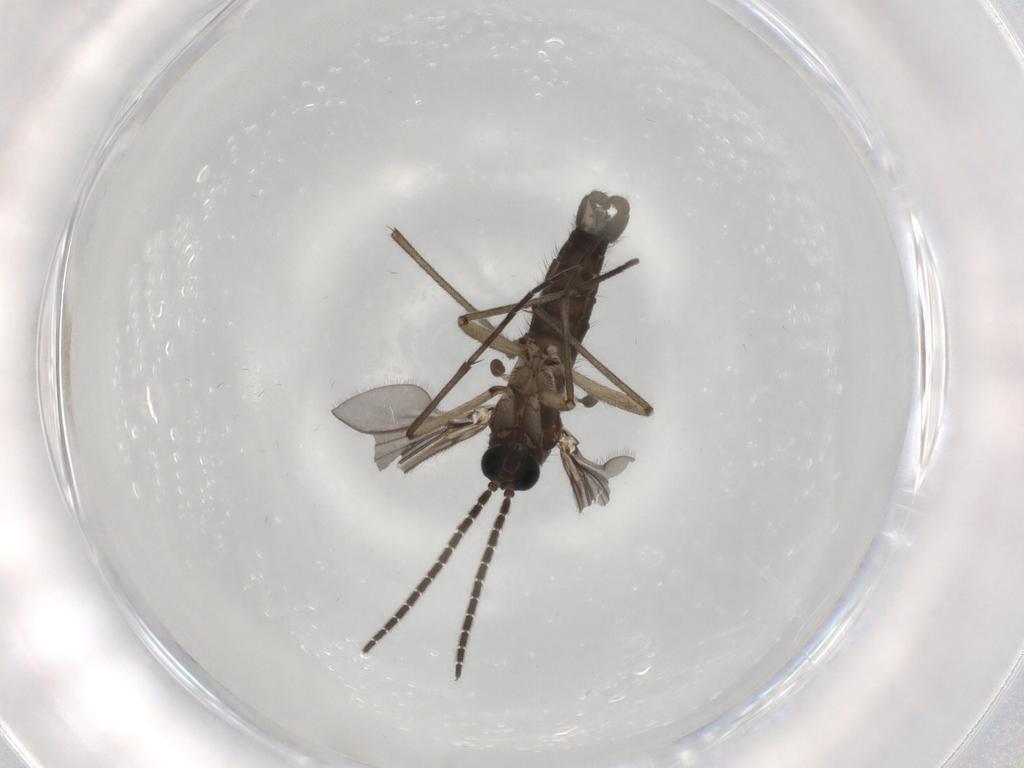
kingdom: Animalia
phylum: Arthropoda
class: Insecta
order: Diptera
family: Sciaridae
